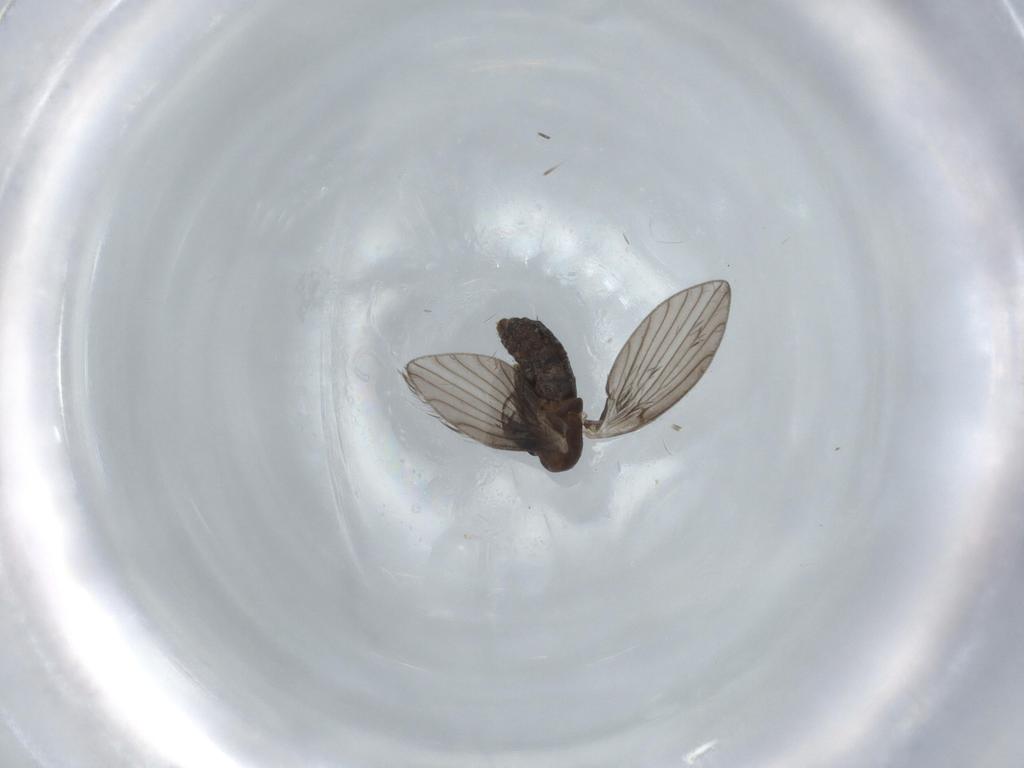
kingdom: Animalia
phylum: Arthropoda
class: Insecta
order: Diptera
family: Psychodidae
